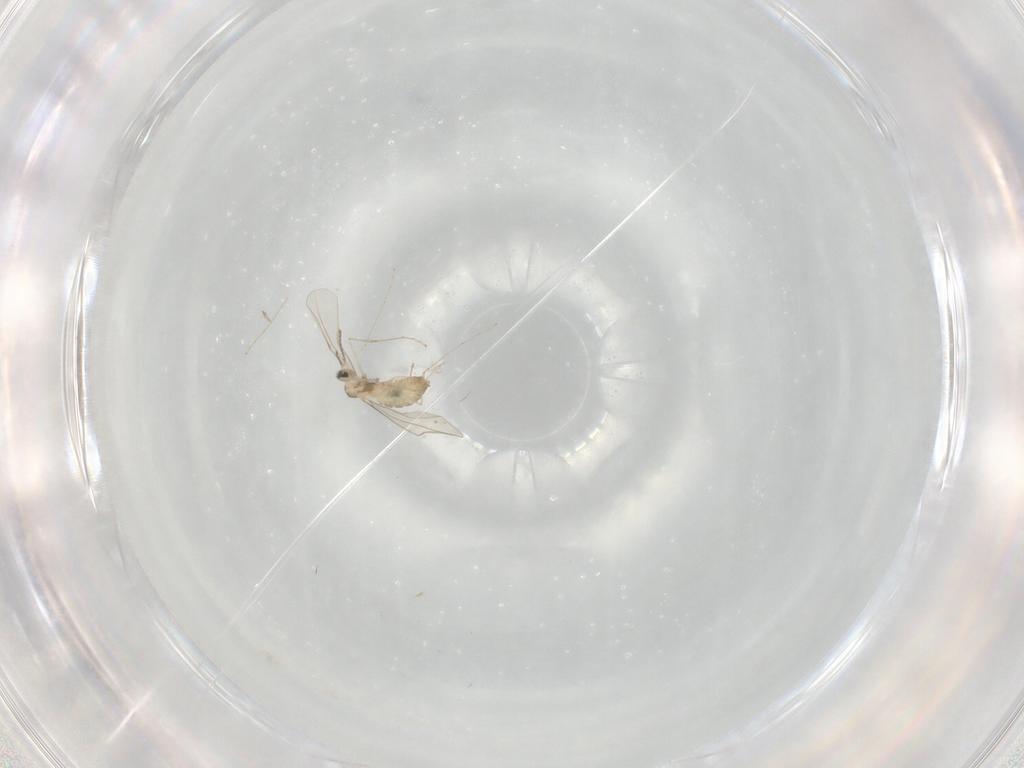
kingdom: Animalia
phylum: Arthropoda
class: Insecta
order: Diptera
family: Cecidomyiidae
